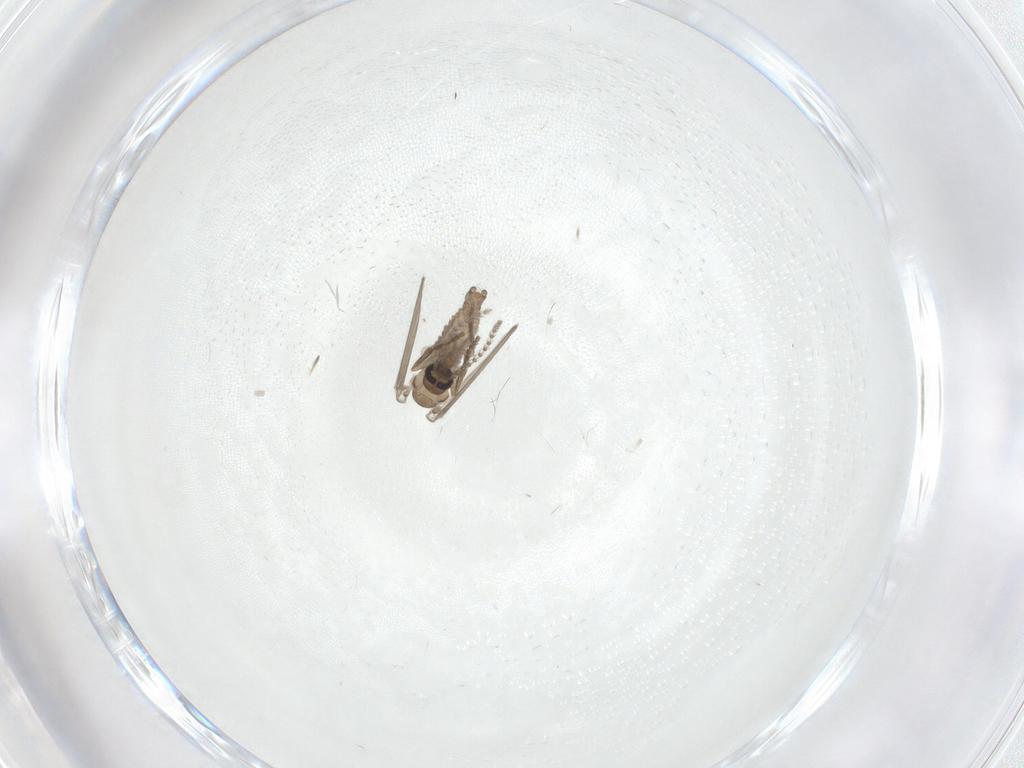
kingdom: Animalia
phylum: Arthropoda
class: Insecta
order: Diptera
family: Psychodidae
